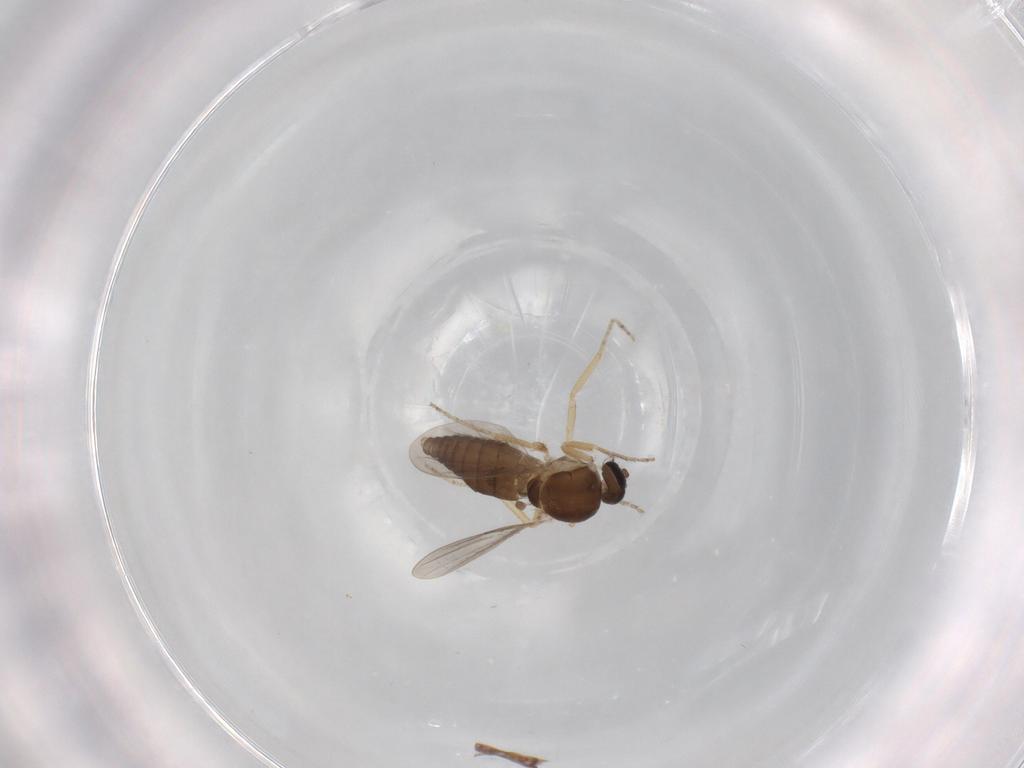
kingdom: Animalia
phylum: Arthropoda
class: Insecta
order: Diptera
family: Ceratopogonidae
